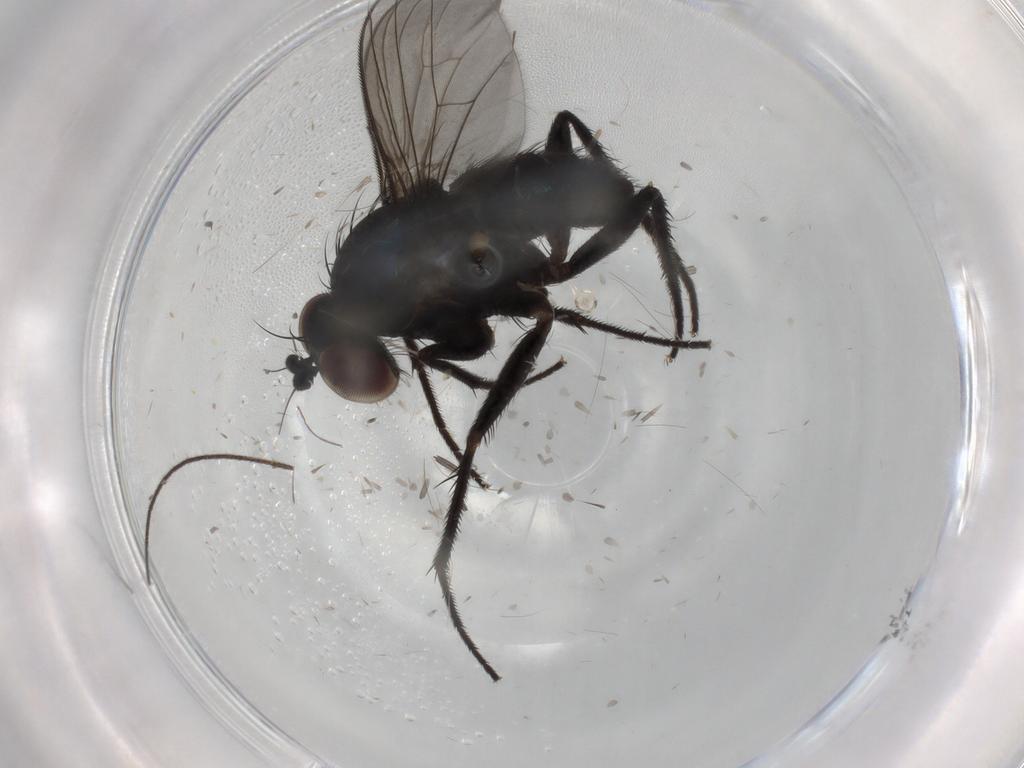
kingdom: Animalia
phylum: Arthropoda
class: Insecta
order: Diptera
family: Dolichopodidae
